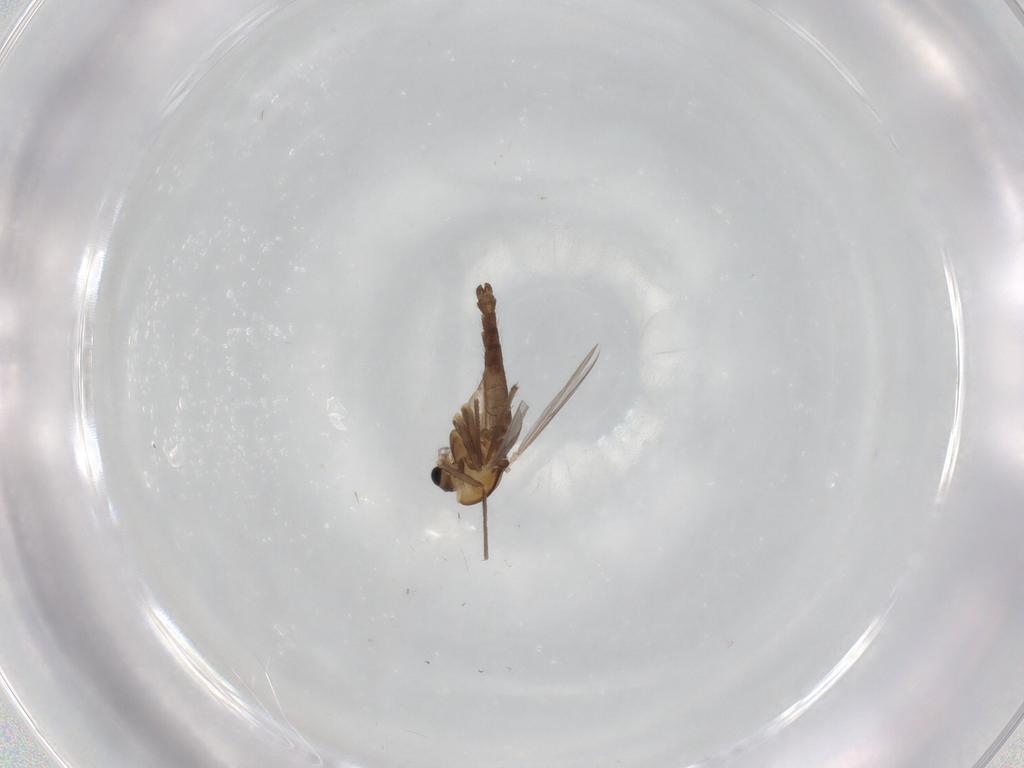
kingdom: Animalia
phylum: Arthropoda
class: Insecta
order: Diptera
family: Chironomidae
